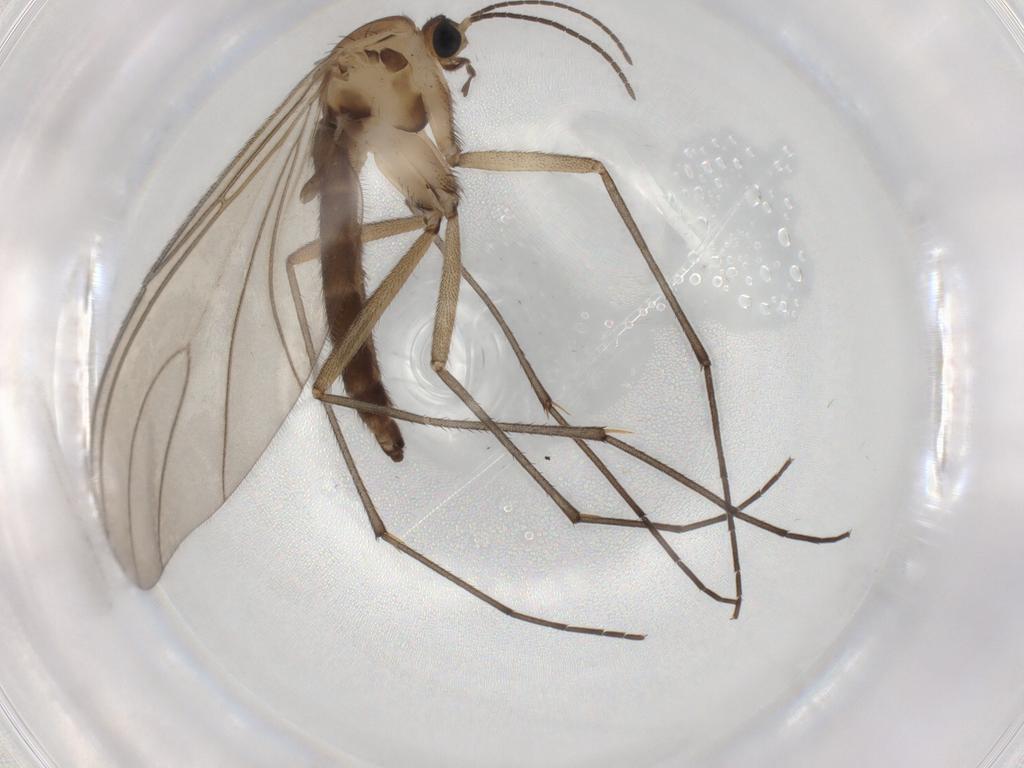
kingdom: Animalia
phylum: Arthropoda
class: Insecta
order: Diptera
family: Sciaridae
